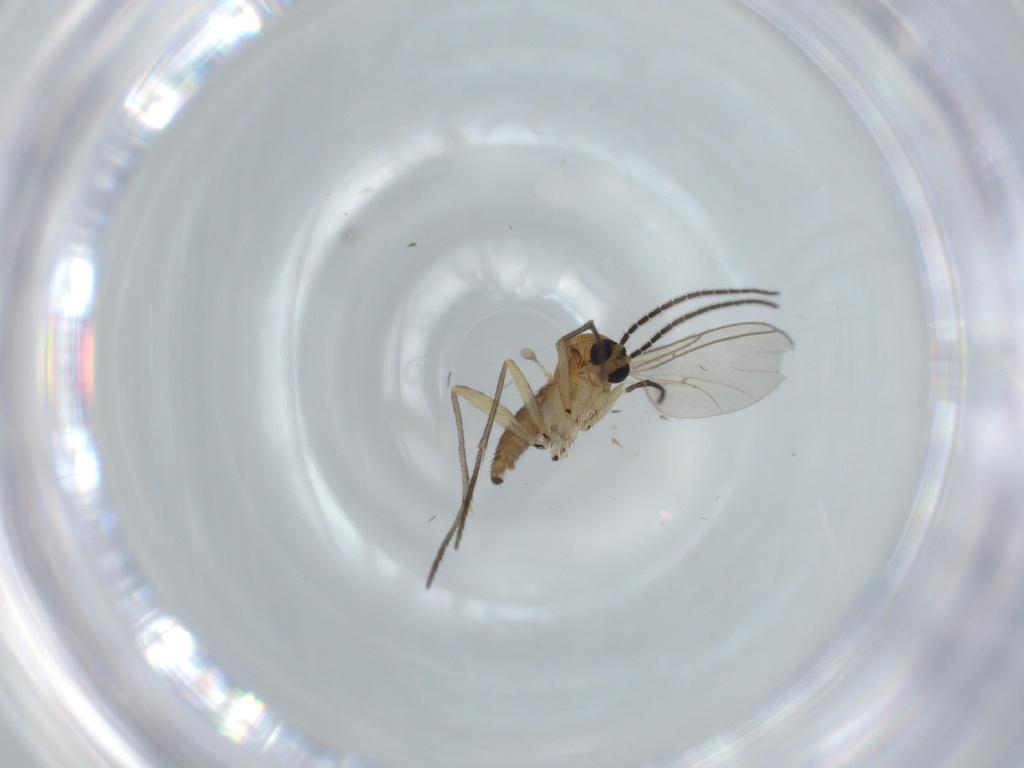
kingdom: Animalia
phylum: Arthropoda
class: Insecta
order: Diptera
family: Sciaridae
